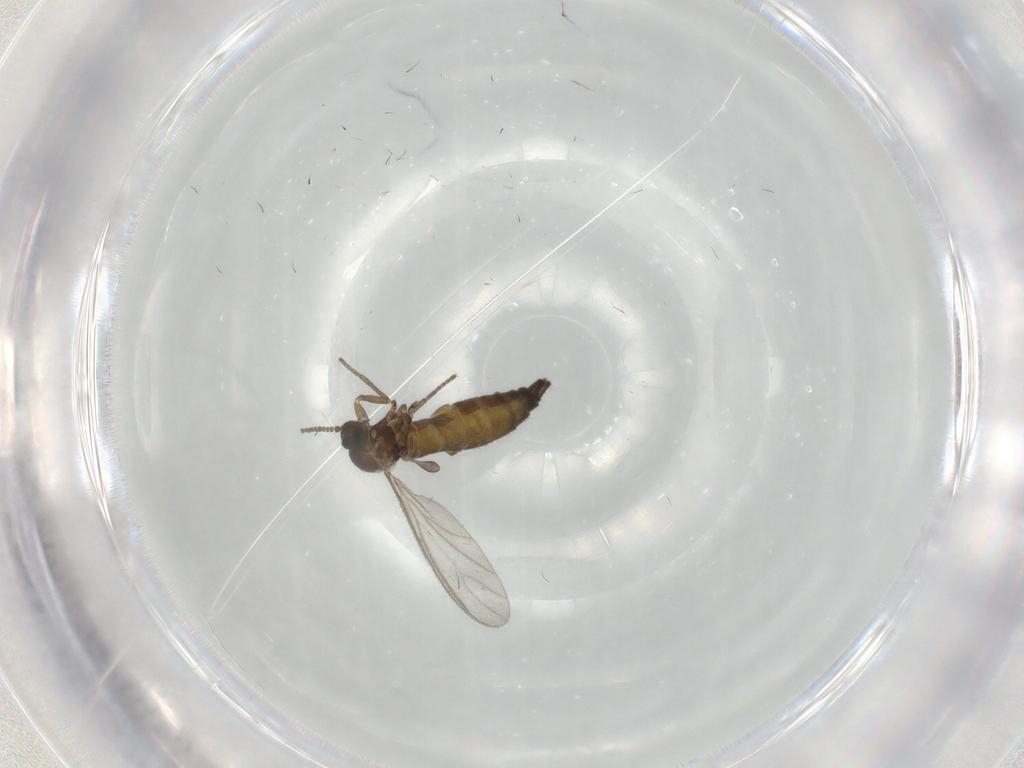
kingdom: Animalia
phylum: Arthropoda
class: Insecta
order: Diptera
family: Sciaridae
